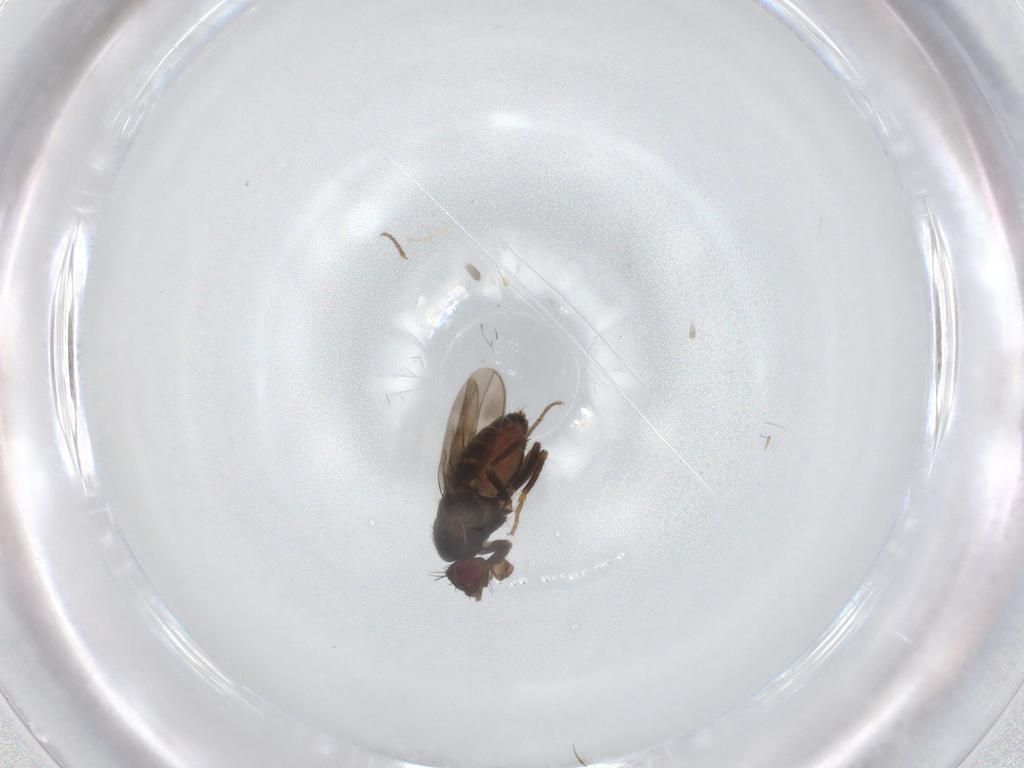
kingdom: Animalia
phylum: Arthropoda
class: Insecta
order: Diptera
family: Sphaeroceridae
